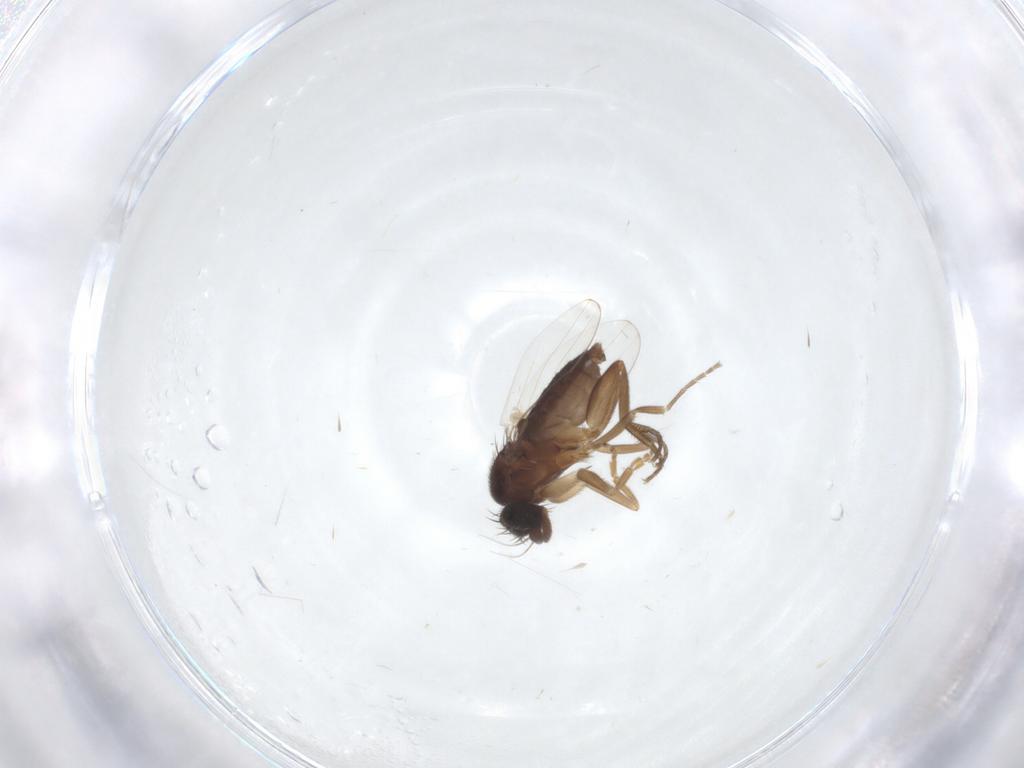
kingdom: Animalia
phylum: Arthropoda
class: Insecta
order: Diptera
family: Phoridae
